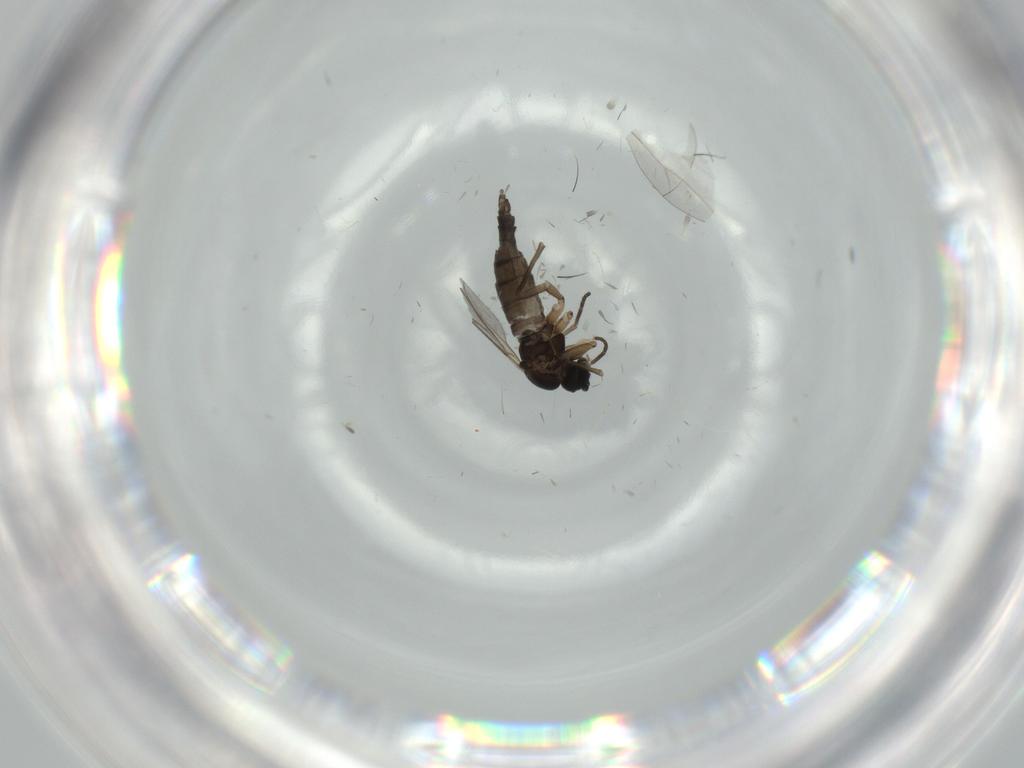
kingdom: Animalia
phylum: Arthropoda
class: Insecta
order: Diptera
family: Sciaridae
